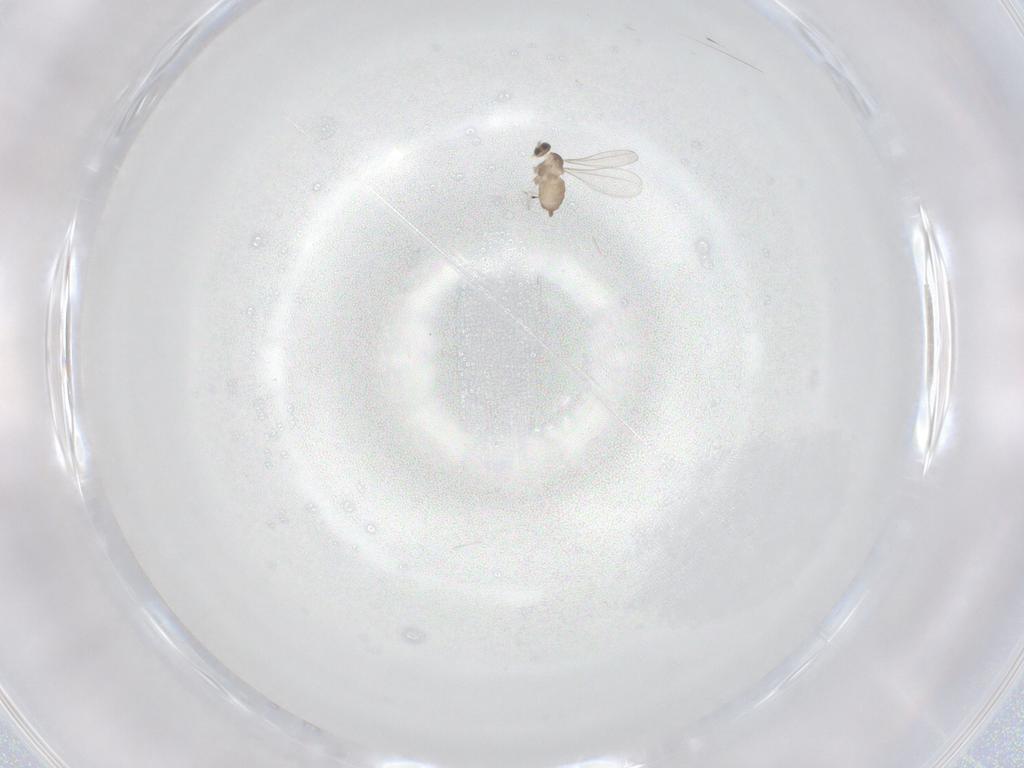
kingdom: Animalia
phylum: Arthropoda
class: Insecta
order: Diptera
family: Cecidomyiidae
